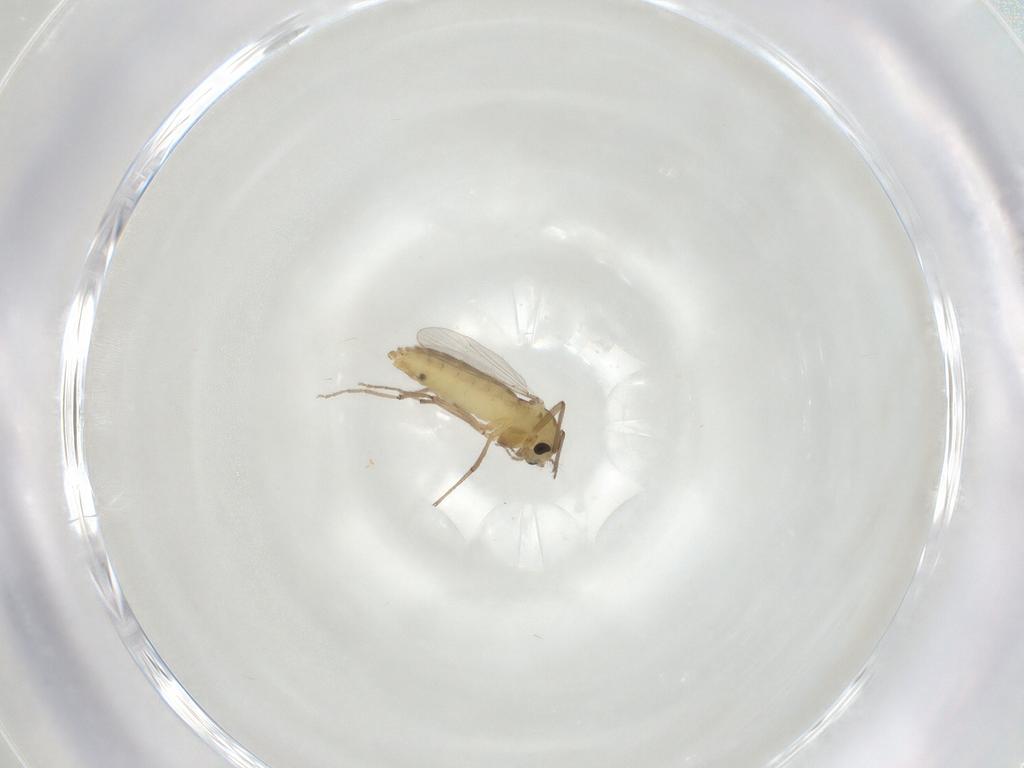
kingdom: Animalia
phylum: Arthropoda
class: Insecta
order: Diptera
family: Chironomidae
